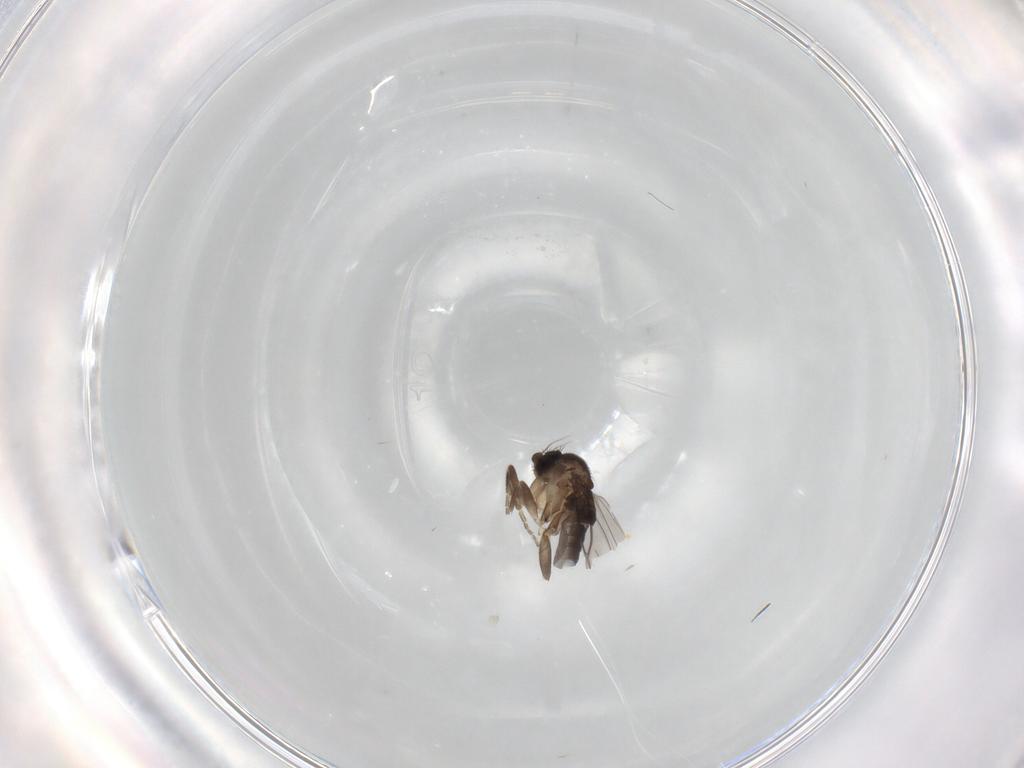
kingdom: Animalia
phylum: Arthropoda
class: Insecta
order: Diptera
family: Phoridae
